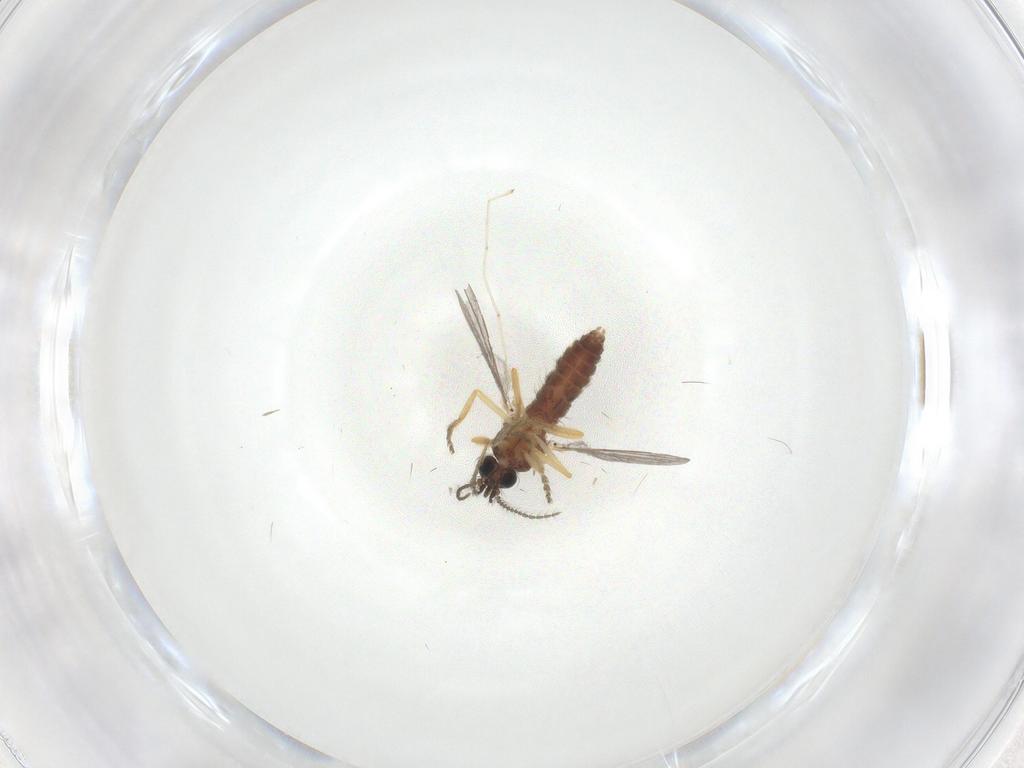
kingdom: Animalia
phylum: Arthropoda
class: Insecta
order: Diptera
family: Ceratopogonidae
